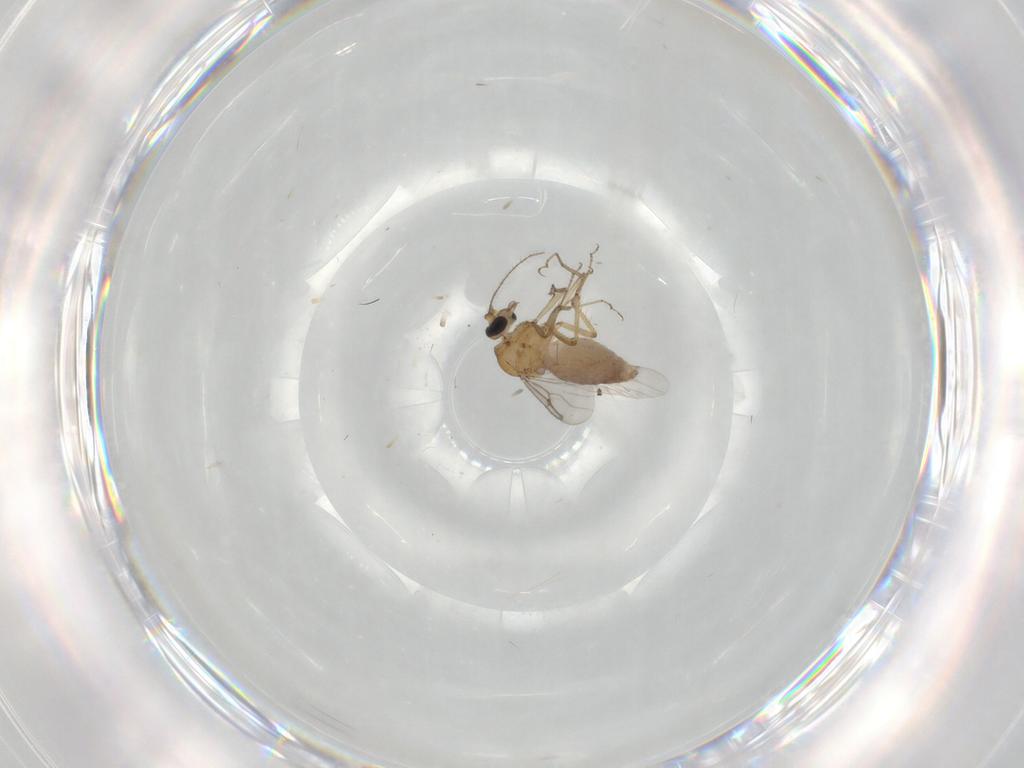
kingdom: Animalia
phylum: Arthropoda
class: Insecta
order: Diptera
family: Ceratopogonidae
